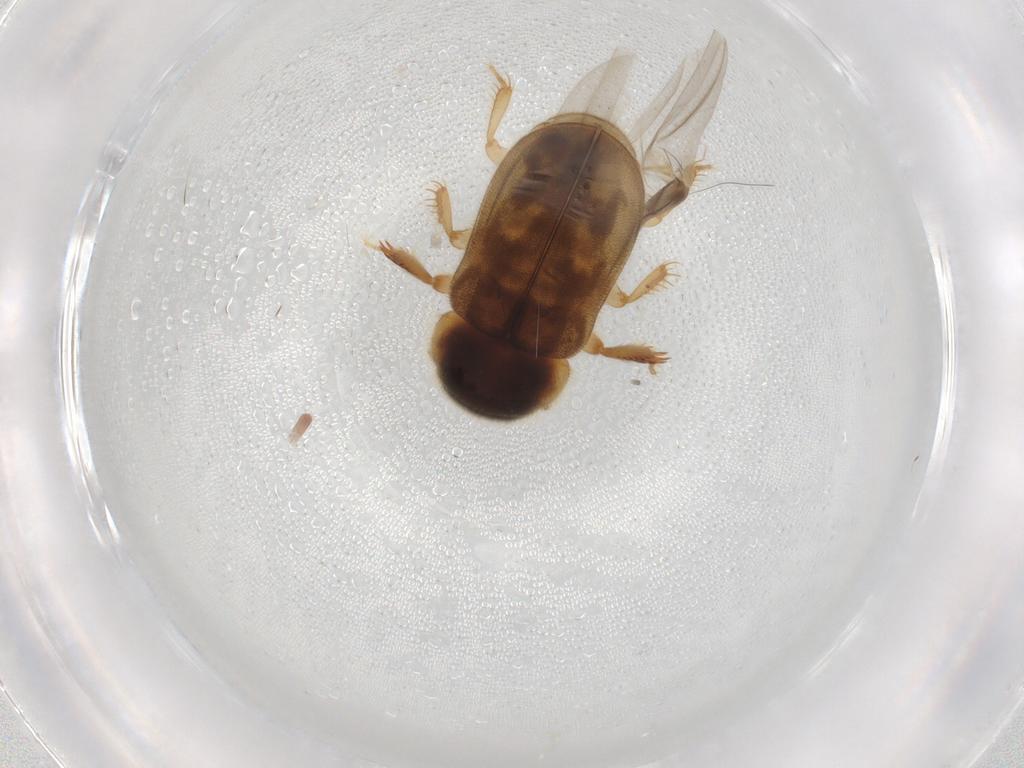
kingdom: Animalia
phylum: Arthropoda
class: Insecta
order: Coleoptera
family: Heteroceridae
